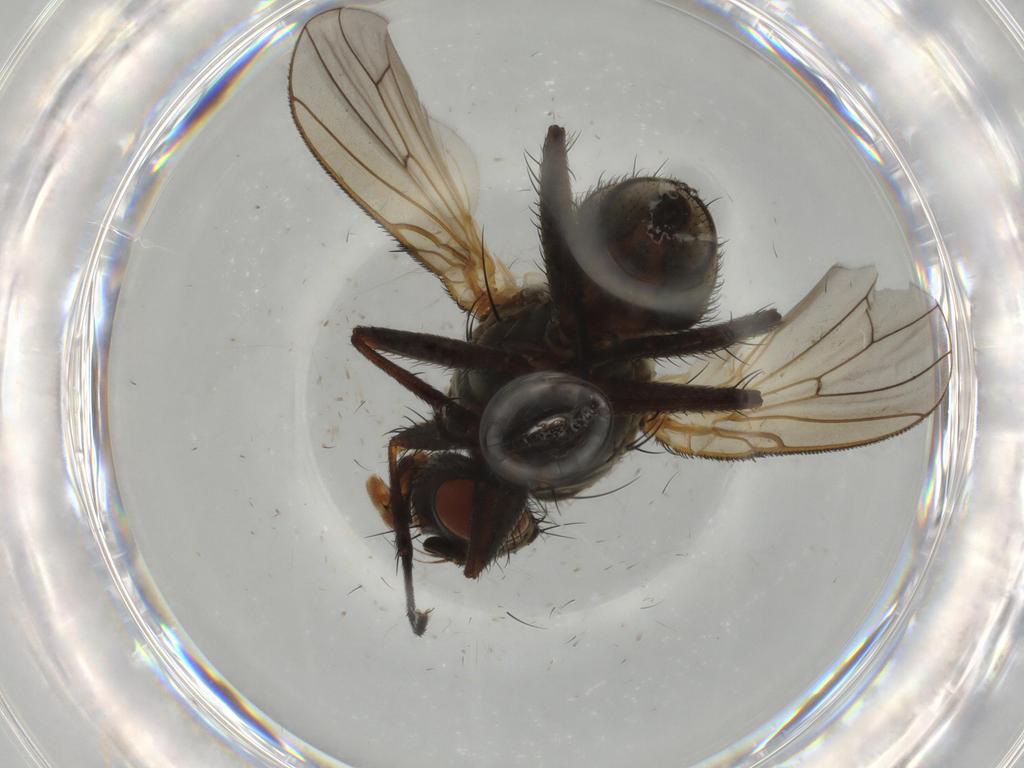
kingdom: Animalia
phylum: Arthropoda
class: Insecta
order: Diptera
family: Anthomyiidae
